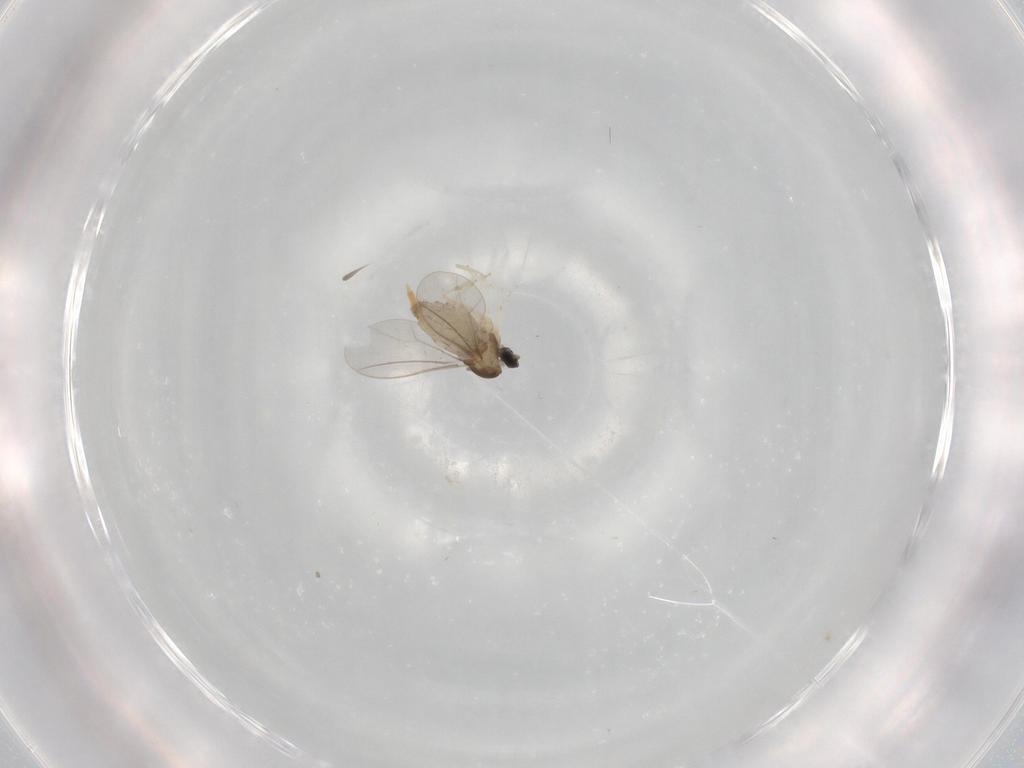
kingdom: Animalia
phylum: Arthropoda
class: Insecta
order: Diptera
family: Cecidomyiidae
